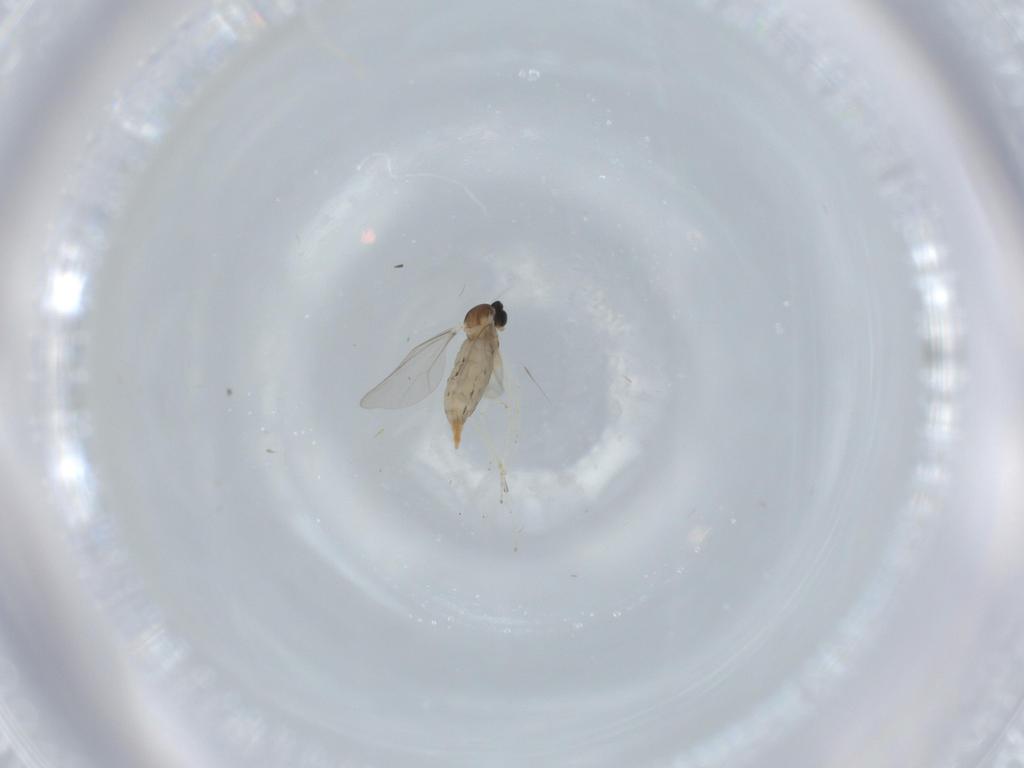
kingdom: Animalia
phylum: Arthropoda
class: Insecta
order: Diptera
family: Cecidomyiidae
